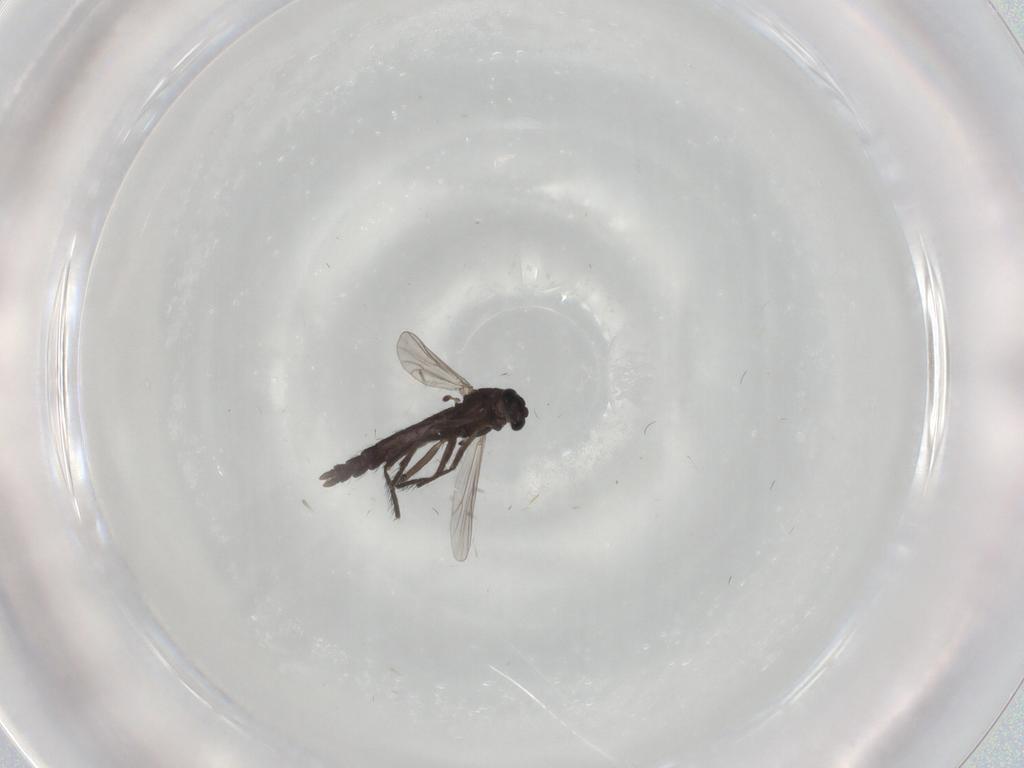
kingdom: Animalia
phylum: Arthropoda
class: Insecta
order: Diptera
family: Chironomidae
